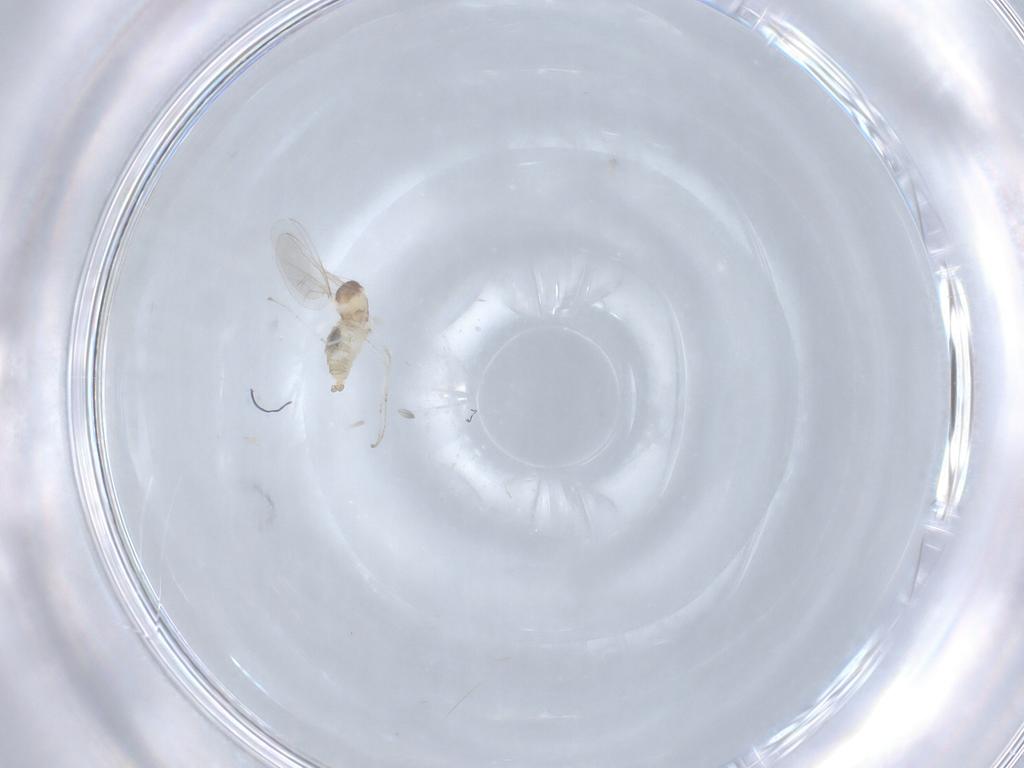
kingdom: Animalia
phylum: Arthropoda
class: Insecta
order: Diptera
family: Cecidomyiidae
